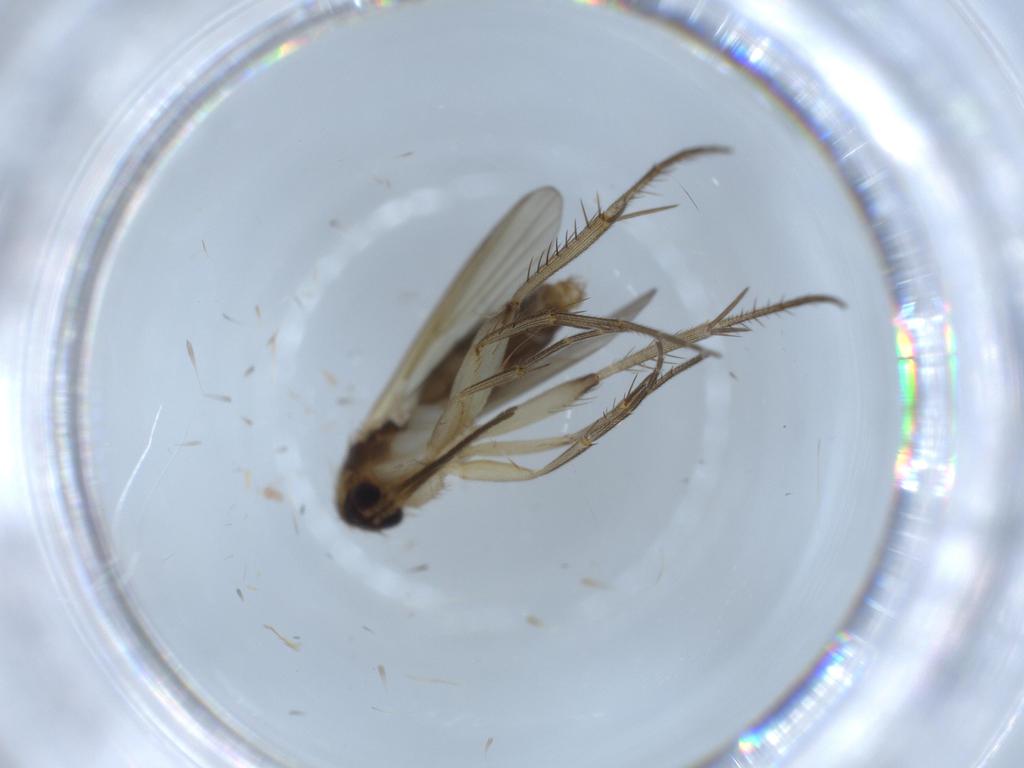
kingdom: Animalia
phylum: Arthropoda
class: Insecta
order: Diptera
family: Mycetophilidae
